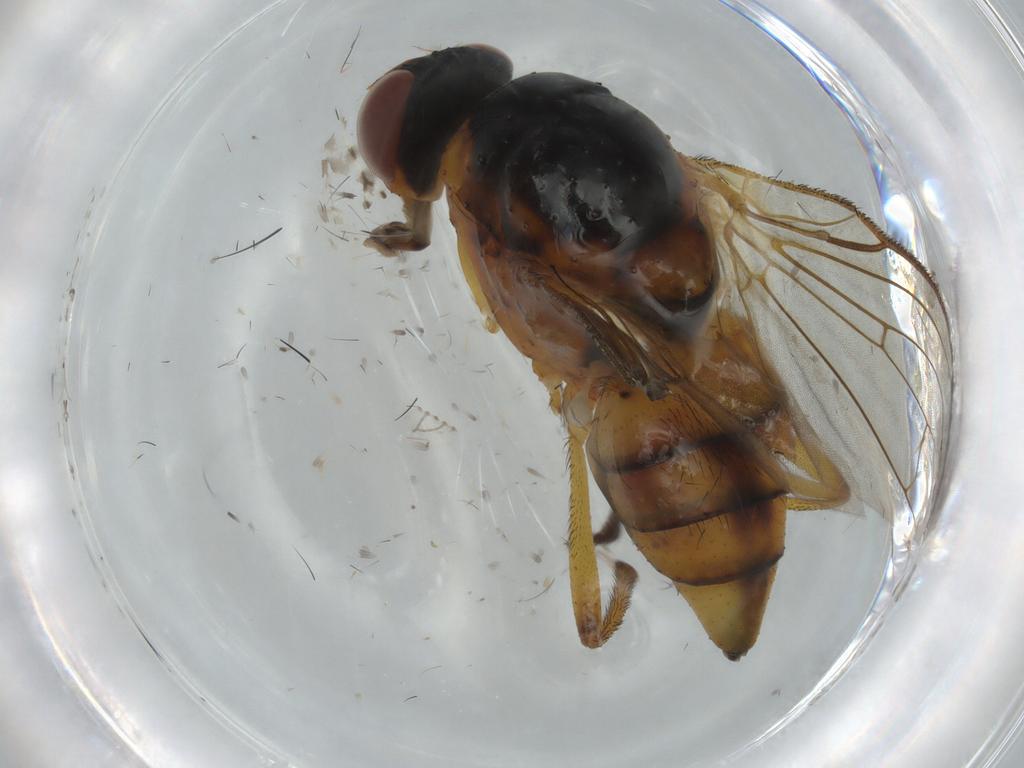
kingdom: Animalia
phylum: Arthropoda
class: Insecta
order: Diptera
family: Anthomyiidae
